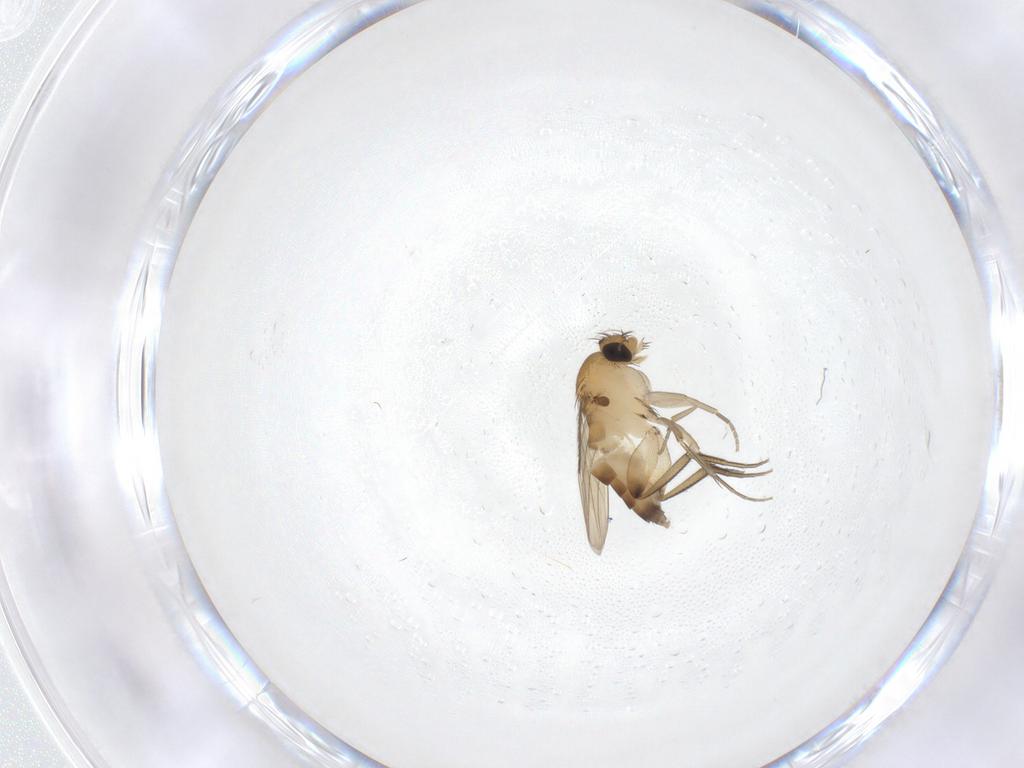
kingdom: Animalia
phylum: Arthropoda
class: Insecta
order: Diptera
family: Phoridae
